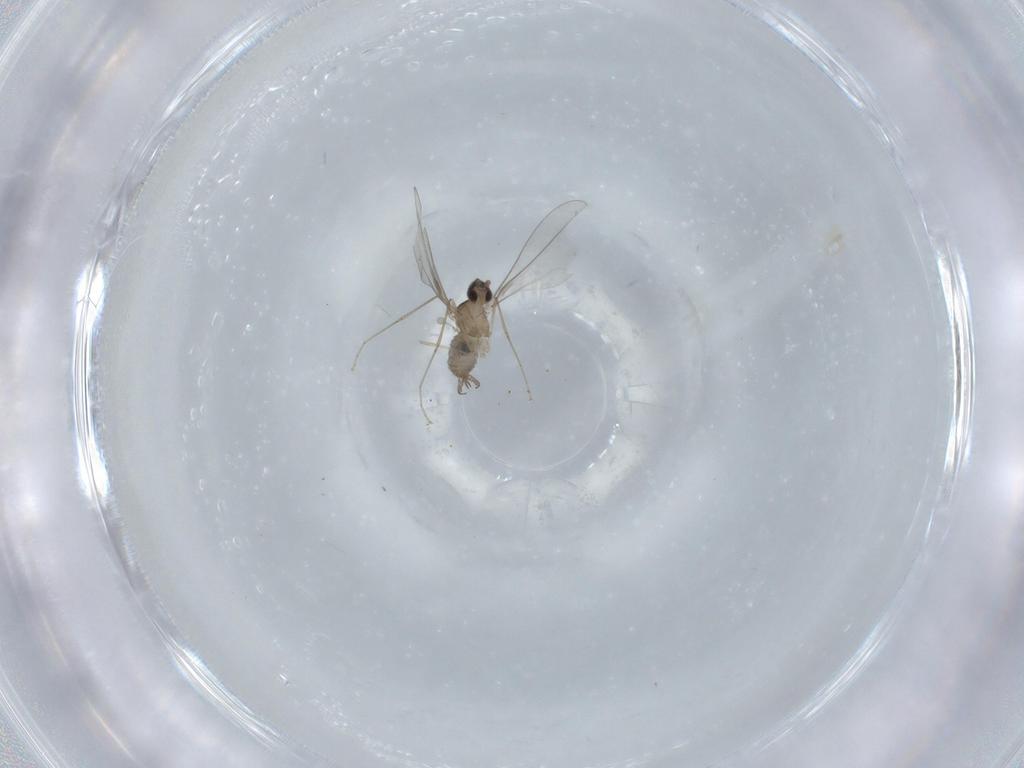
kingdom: Animalia
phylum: Arthropoda
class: Insecta
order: Diptera
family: Cecidomyiidae
